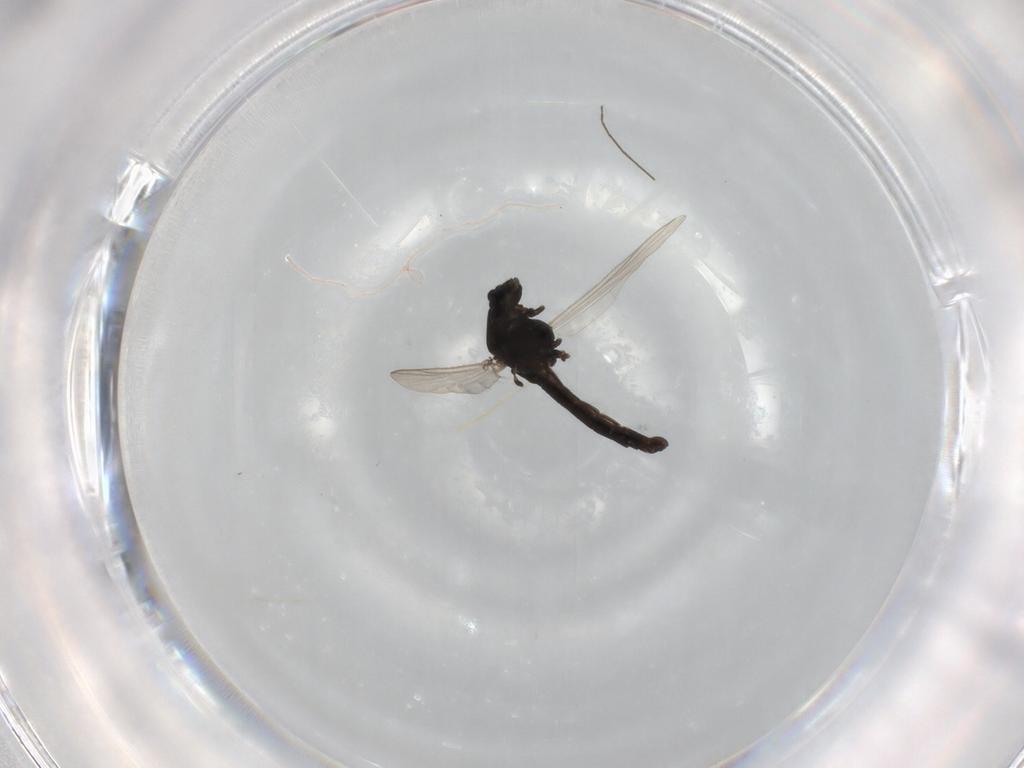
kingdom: Animalia
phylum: Arthropoda
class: Insecta
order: Diptera
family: Chironomidae
